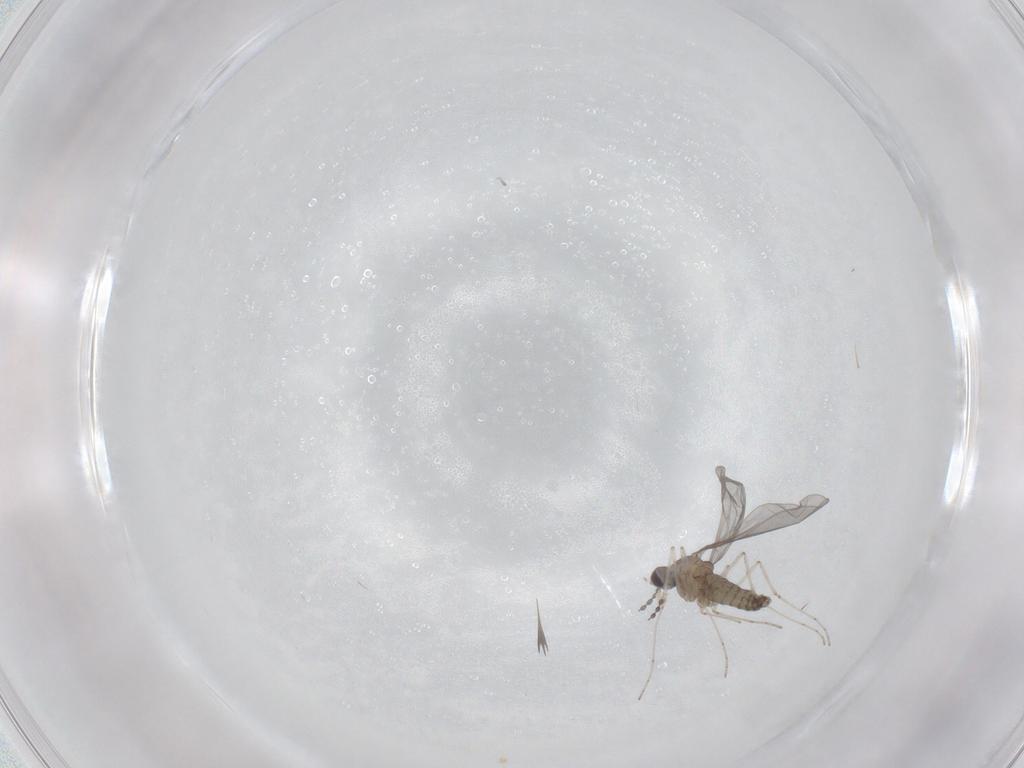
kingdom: Animalia
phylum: Arthropoda
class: Insecta
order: Diptera
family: Cecidomyiidae
